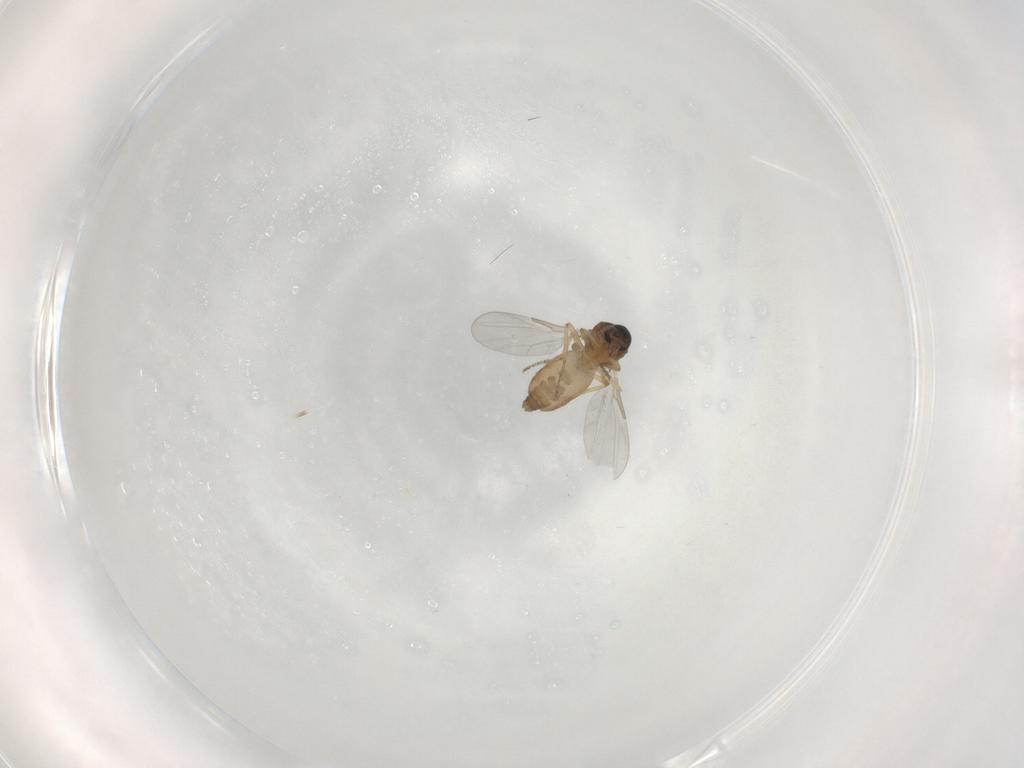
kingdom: Animalia
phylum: Arthropoda
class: Insecta
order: Diptera
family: Ceratopogonidae
